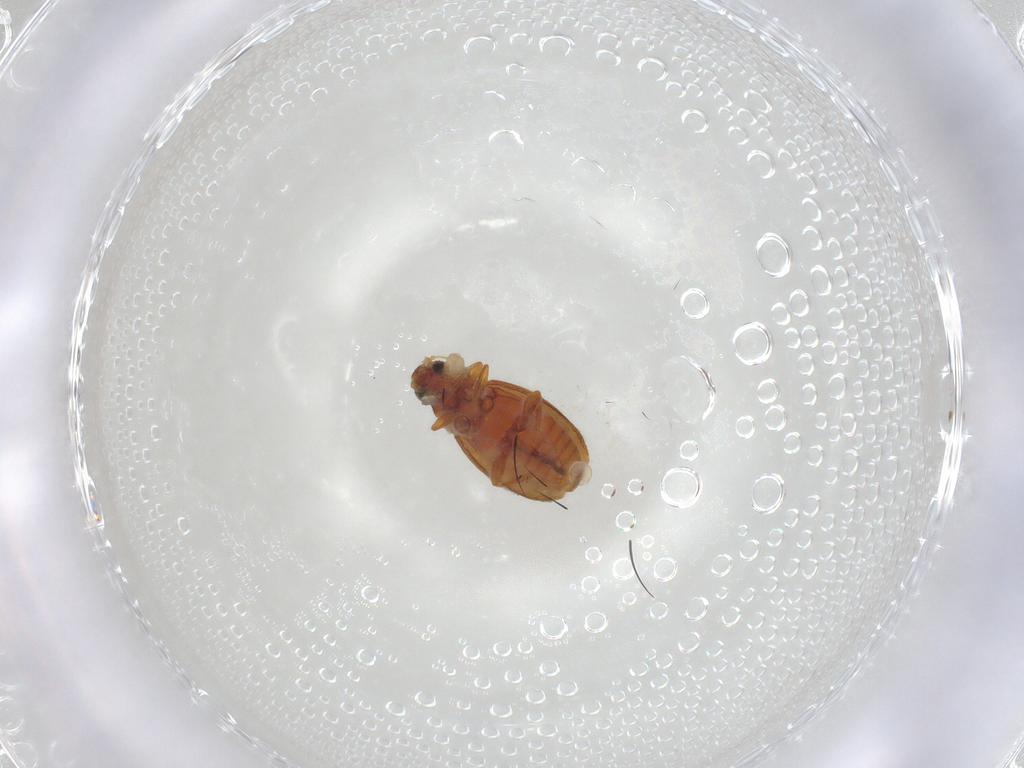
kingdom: Animalia
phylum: Arthropoda
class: Insecta
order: Coleoptera
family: Latridiidae
